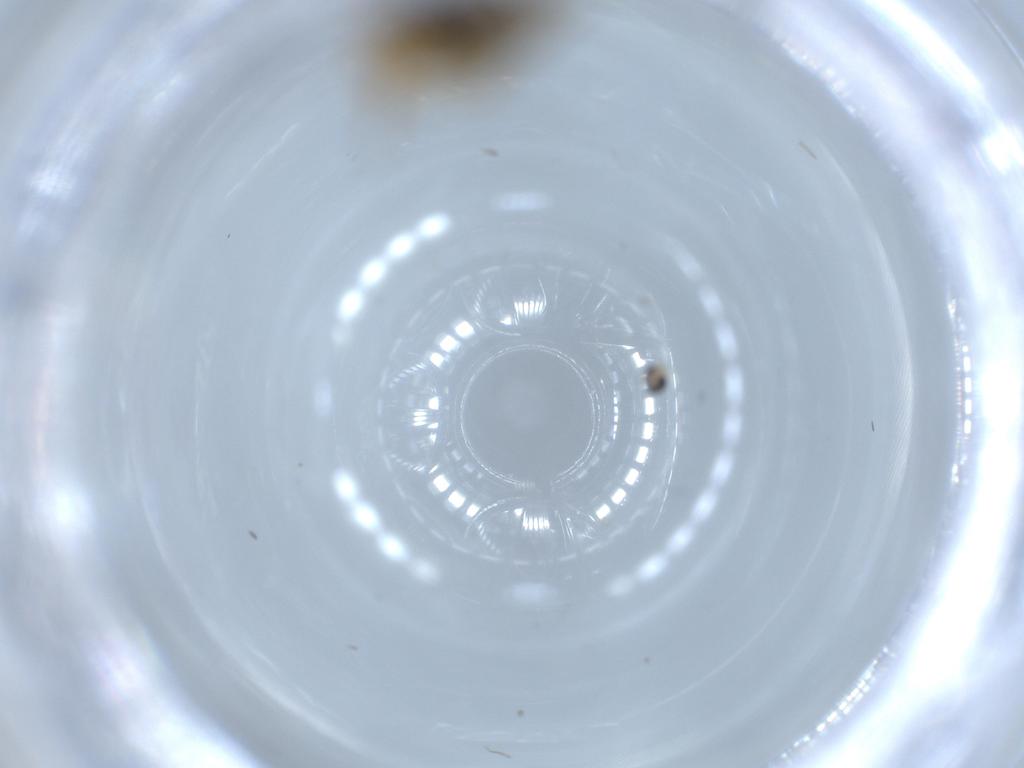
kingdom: Animalia
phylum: Arthropoda
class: Insecta
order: Diptera
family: Cecidomyiidae
